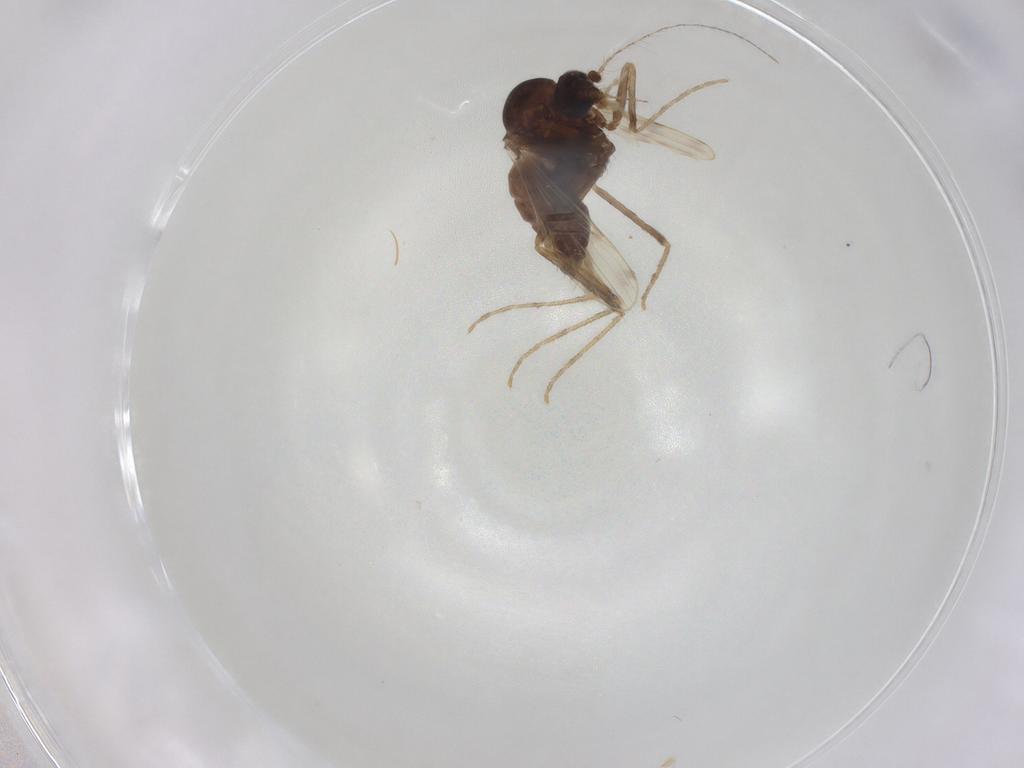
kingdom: Animalia
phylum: Arthropoda
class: Insecta
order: Diptera
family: Corethrellidae
